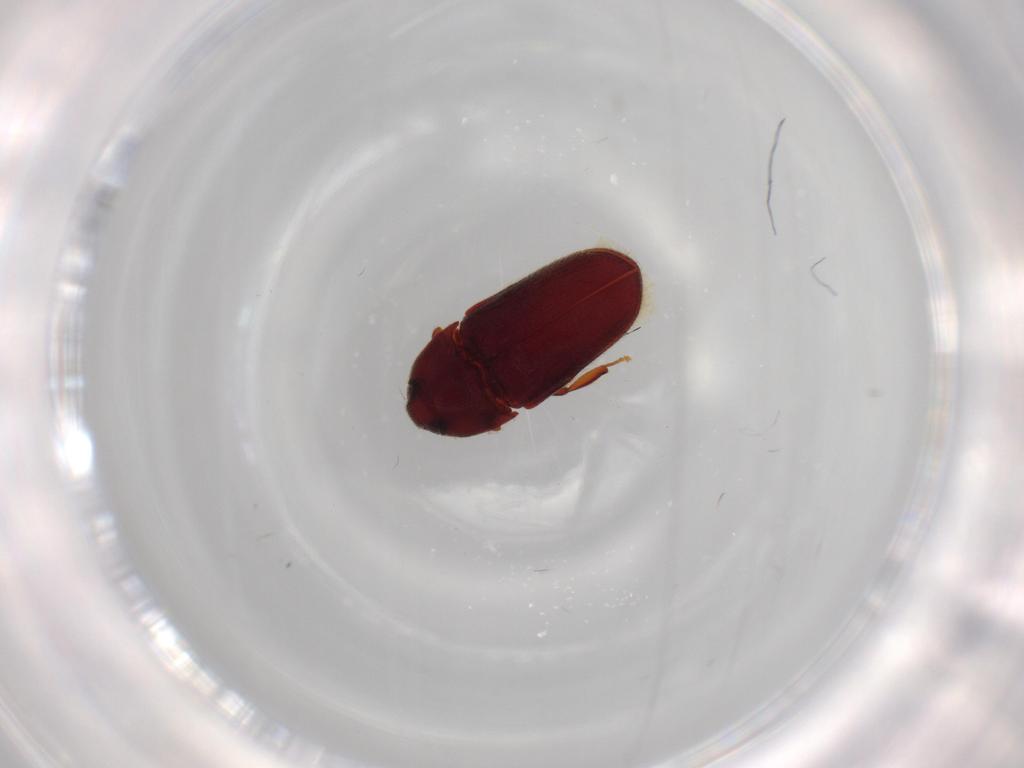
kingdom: Animalia
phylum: Arthropoda
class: Insecta
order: Coleoptera
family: Throscidae
